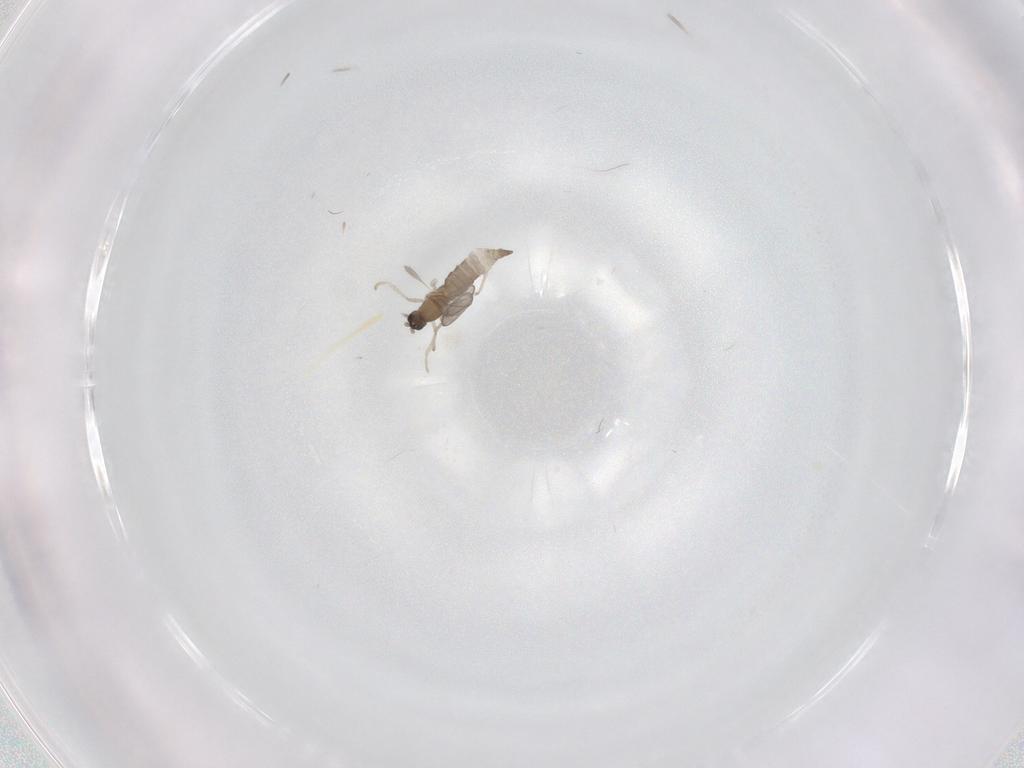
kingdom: Animalia
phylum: Arthropoda
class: Insecta
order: Diptera
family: Cecidomyiidae
